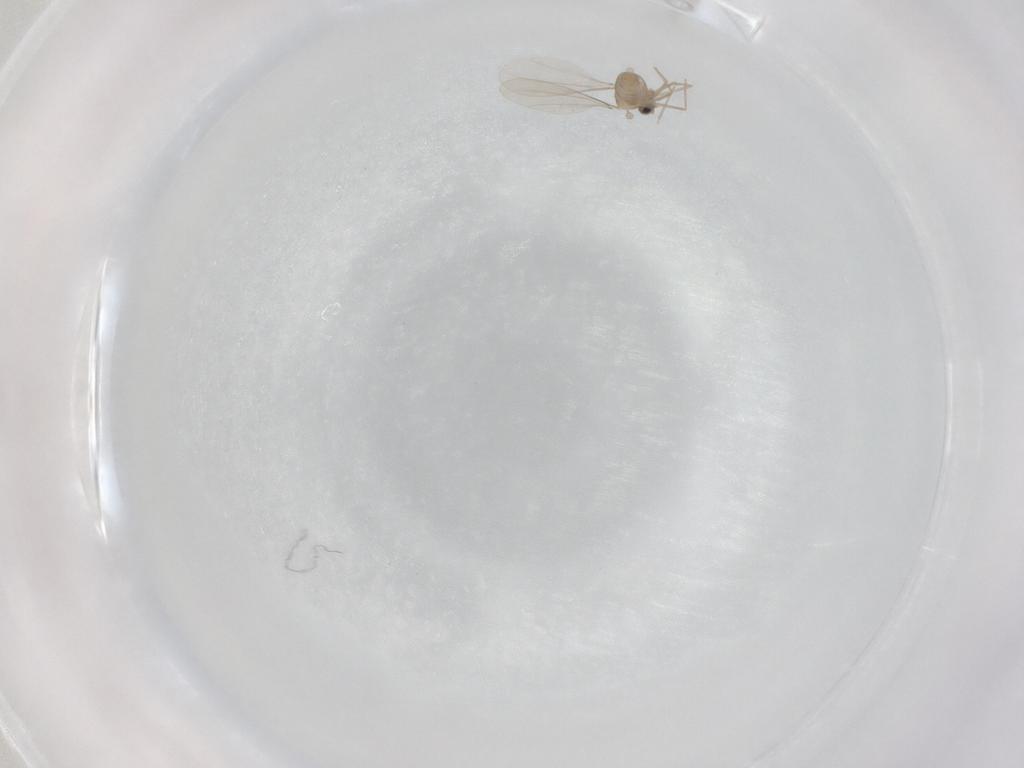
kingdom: Animalia
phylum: Arthropoda
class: Insecta
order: Diptera
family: Cecidomyiidae
